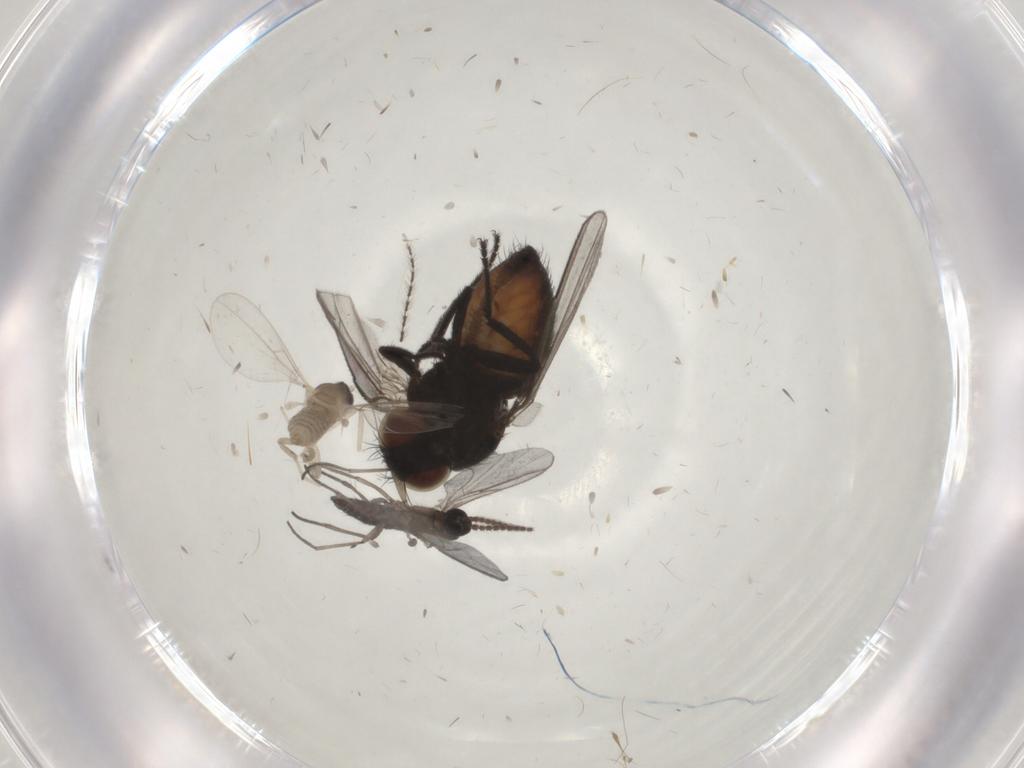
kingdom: Animalia
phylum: Arthropoda
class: Insecta
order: Diptera
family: Milichiidae
